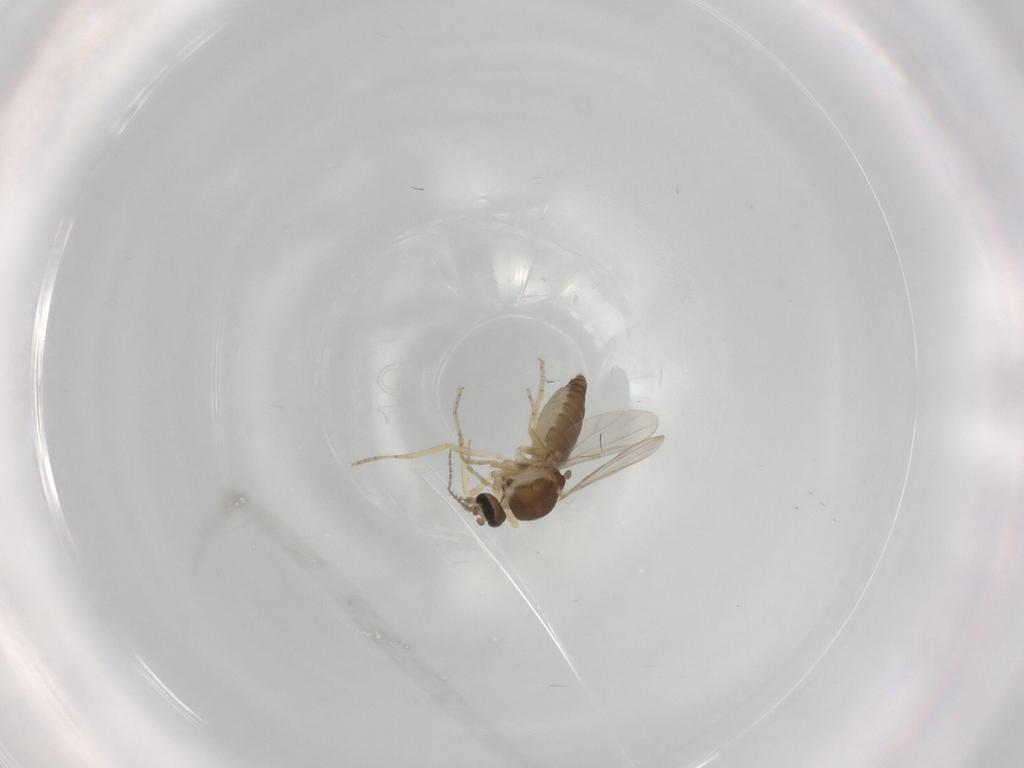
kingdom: Animalia
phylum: Arthropoda
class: Insecta
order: Diptera
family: Ceratopogonidae
